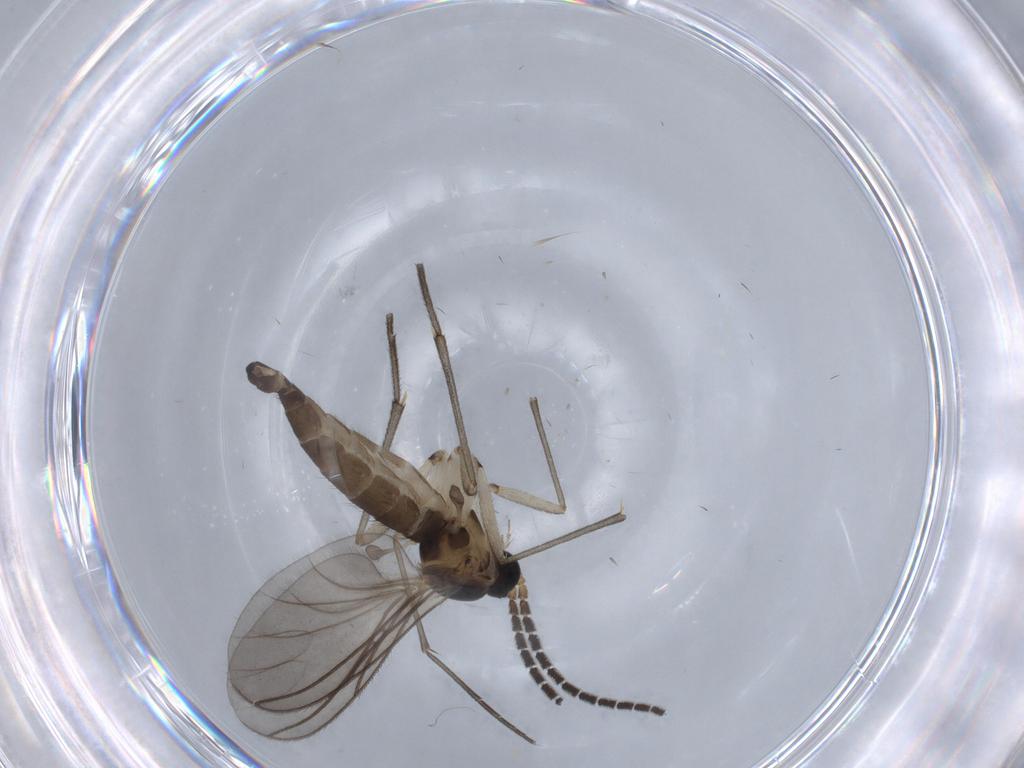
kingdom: Animalia
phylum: Arthropoda
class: Insecta
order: Diptera
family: Sciaridae
